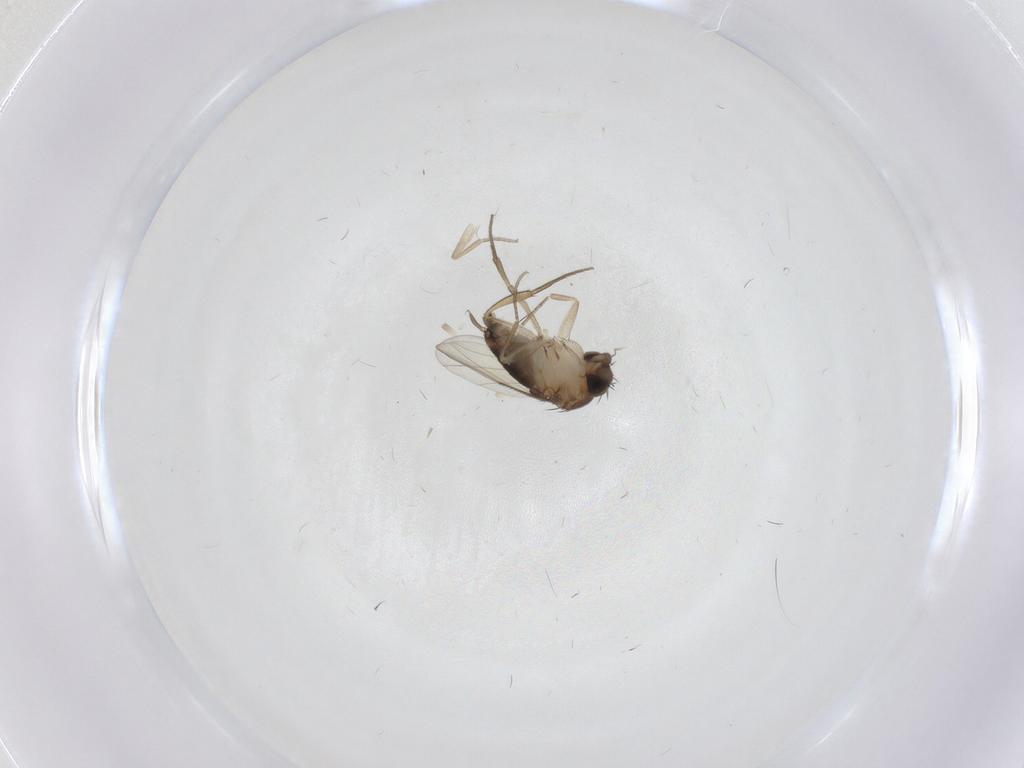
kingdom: Animalia
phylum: Arthropoda
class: Insecta
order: Diptera
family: Phoridae
